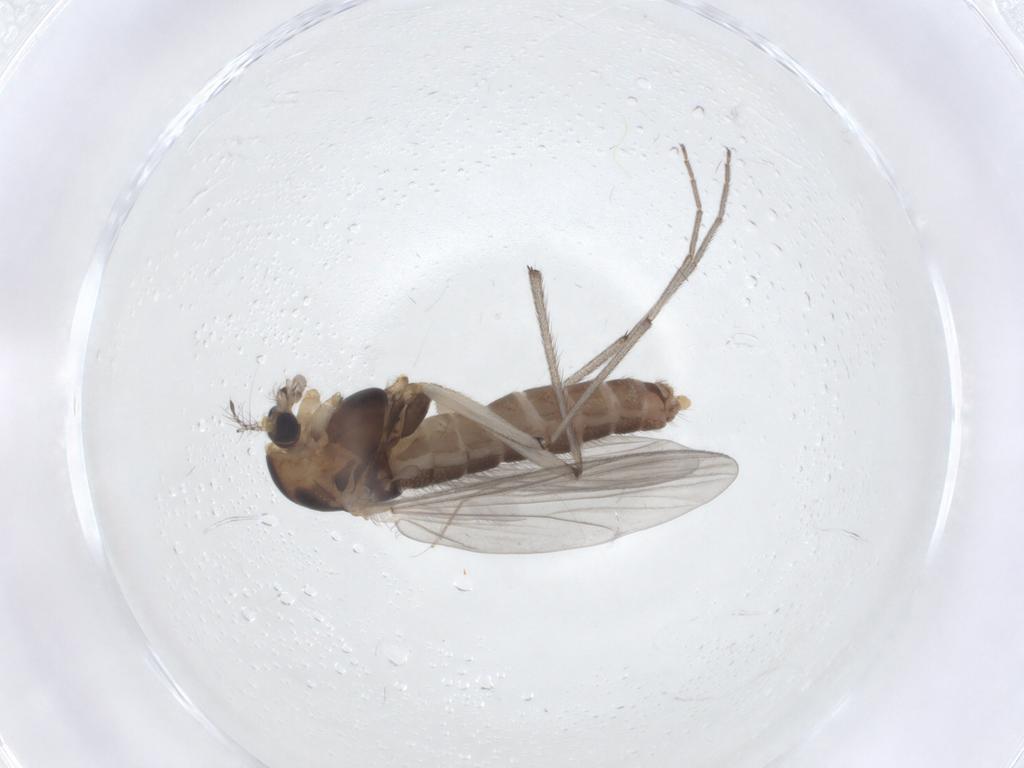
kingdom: Animalia
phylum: Arthropoda
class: Insecta
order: Diptera
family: Chironomidae
